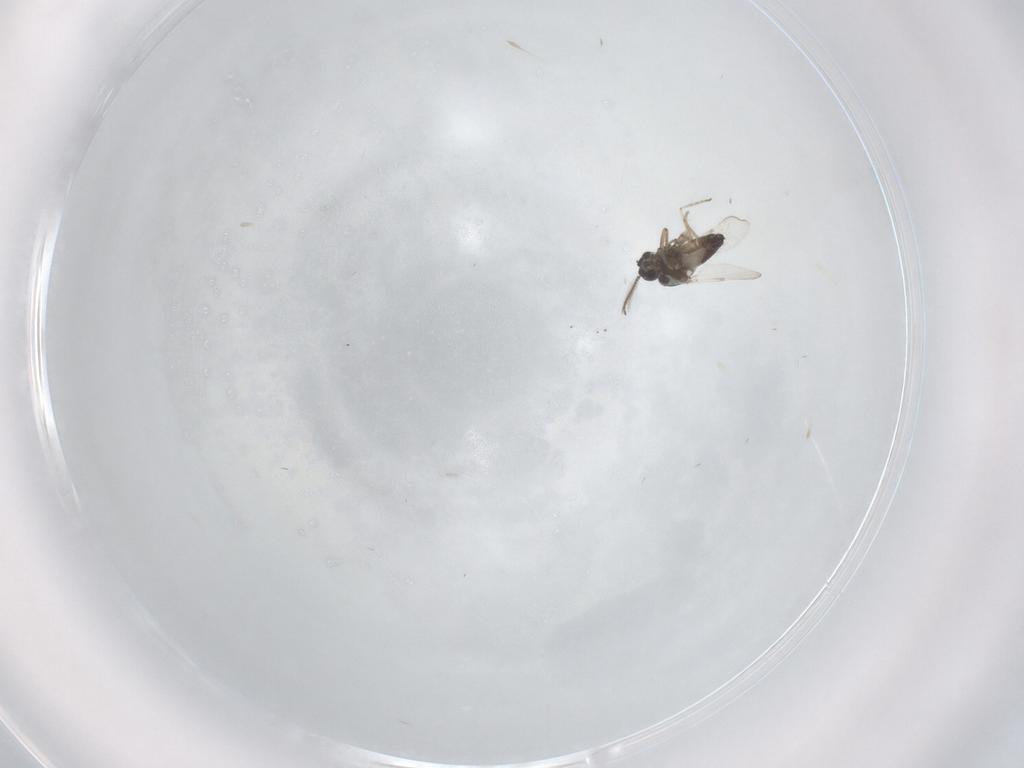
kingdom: Animalia
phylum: Arthropoda
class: Insecta
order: Diptera
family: Ceratopogonidae
